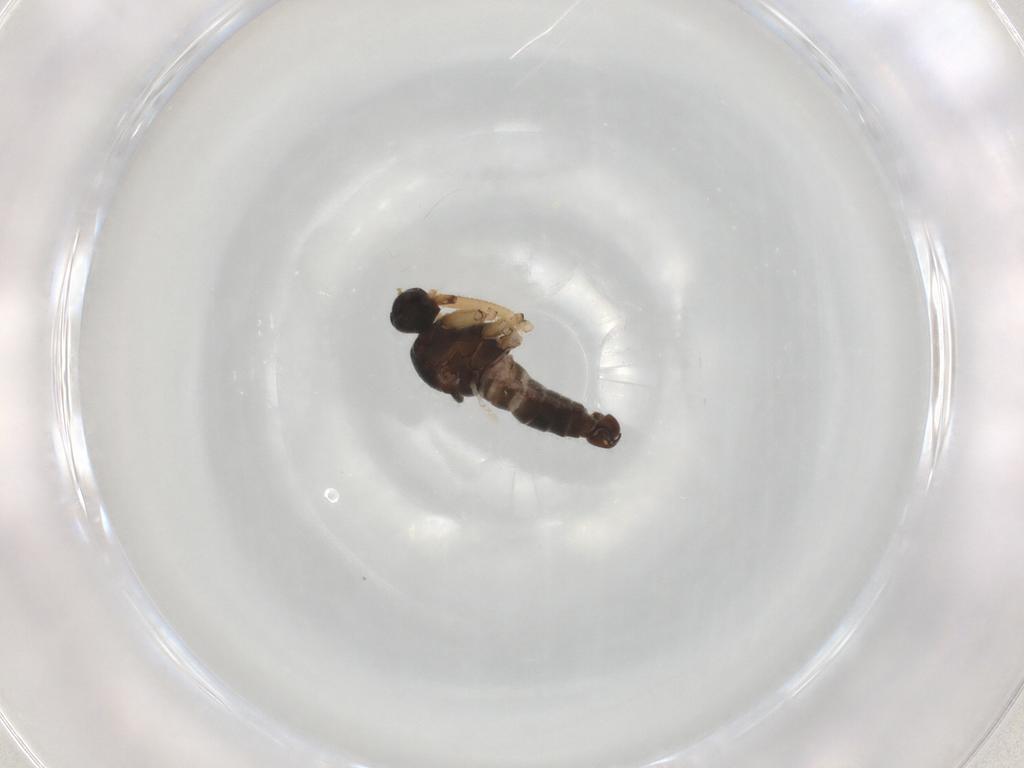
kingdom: Animalia
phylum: Arthropoda
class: Insecta
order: Diptera
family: Hybotidae
